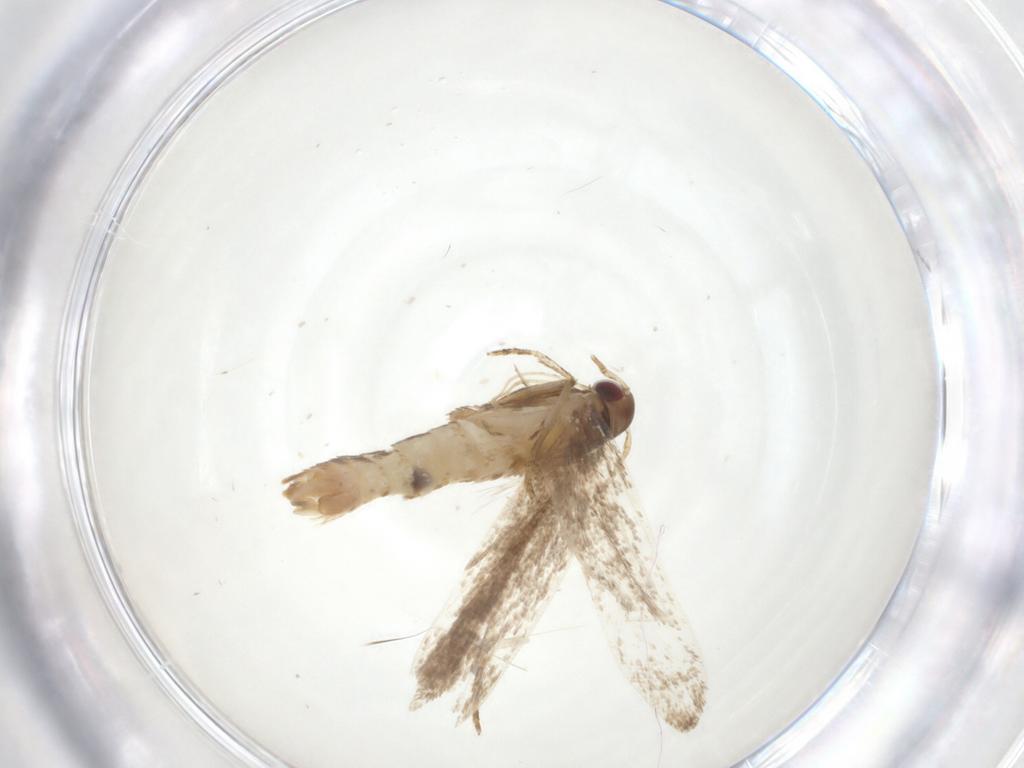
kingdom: Animalia
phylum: Arthropoda
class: Insecta
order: Lepidoptera
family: Gelechiidae
